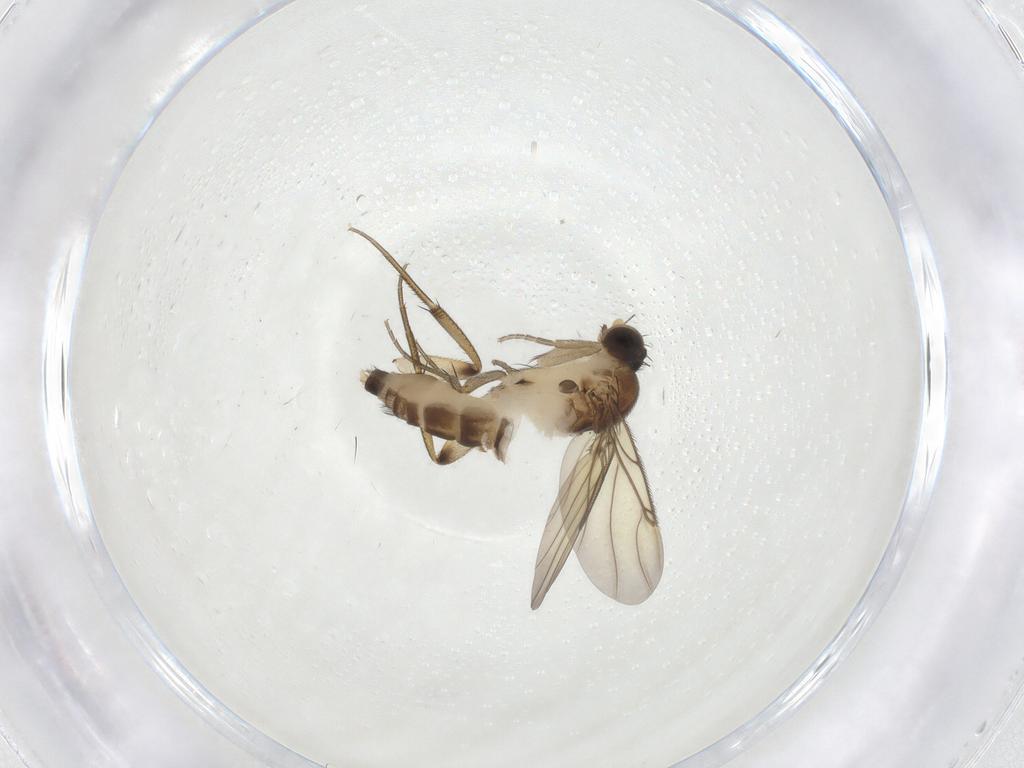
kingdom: Animalia
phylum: Arthropoda
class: Insecta
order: Diptera
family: Phoridae
